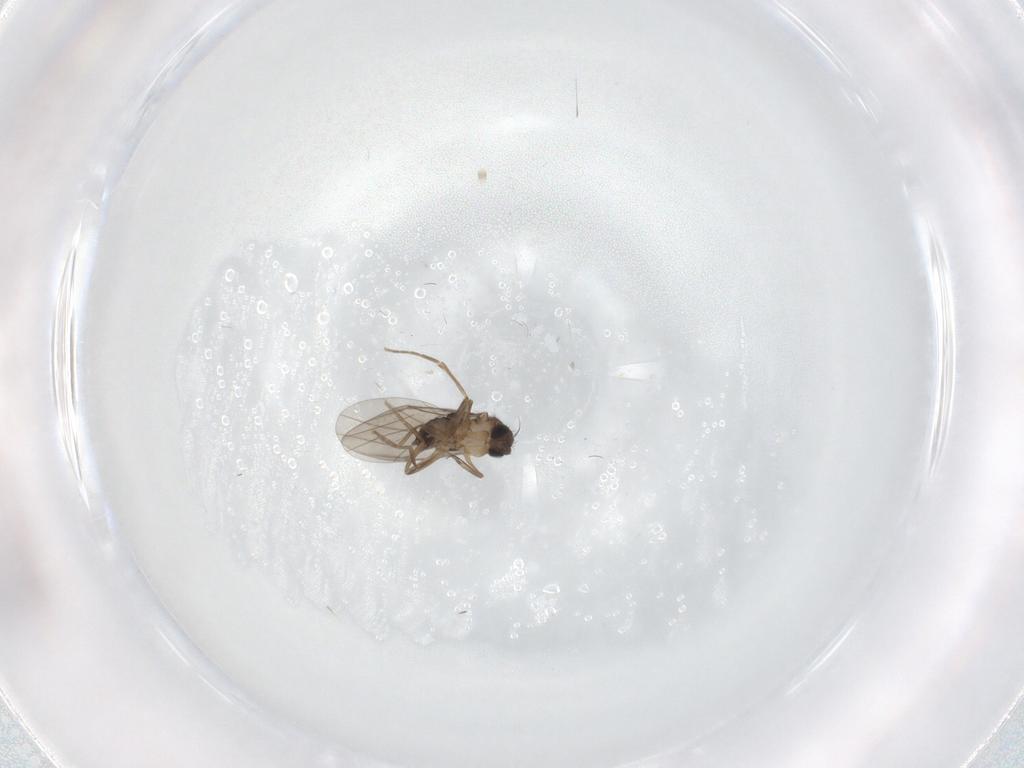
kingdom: Animalia
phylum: Arthropoda
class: Insecta
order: Diptera
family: Phoridae
